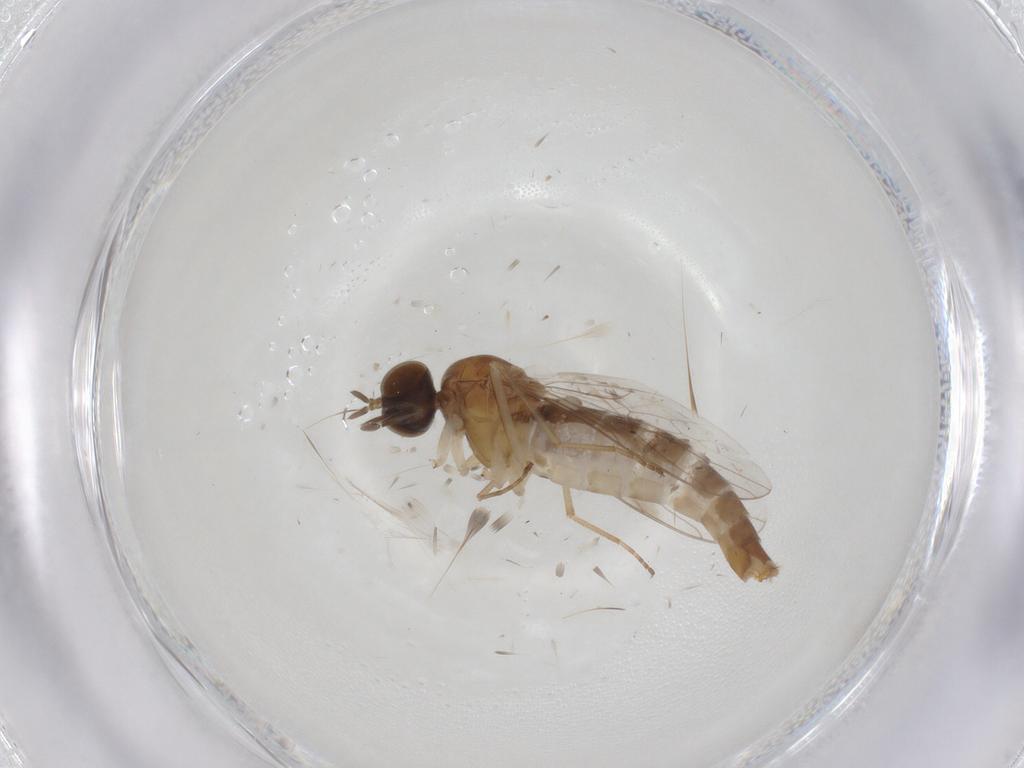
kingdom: Animalia
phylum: Arthropoda
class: Insecta
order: Diptera
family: Scenopinidae
